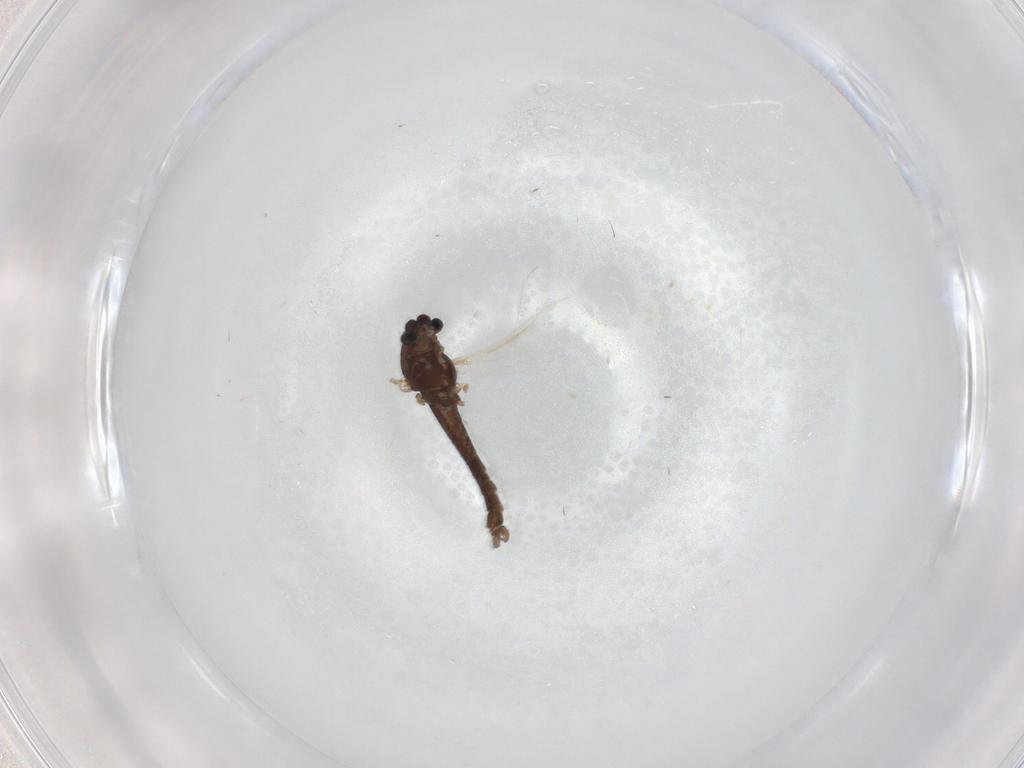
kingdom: Animalia
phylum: Arthropoda
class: Insecta
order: Diptera
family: Chironomidae
